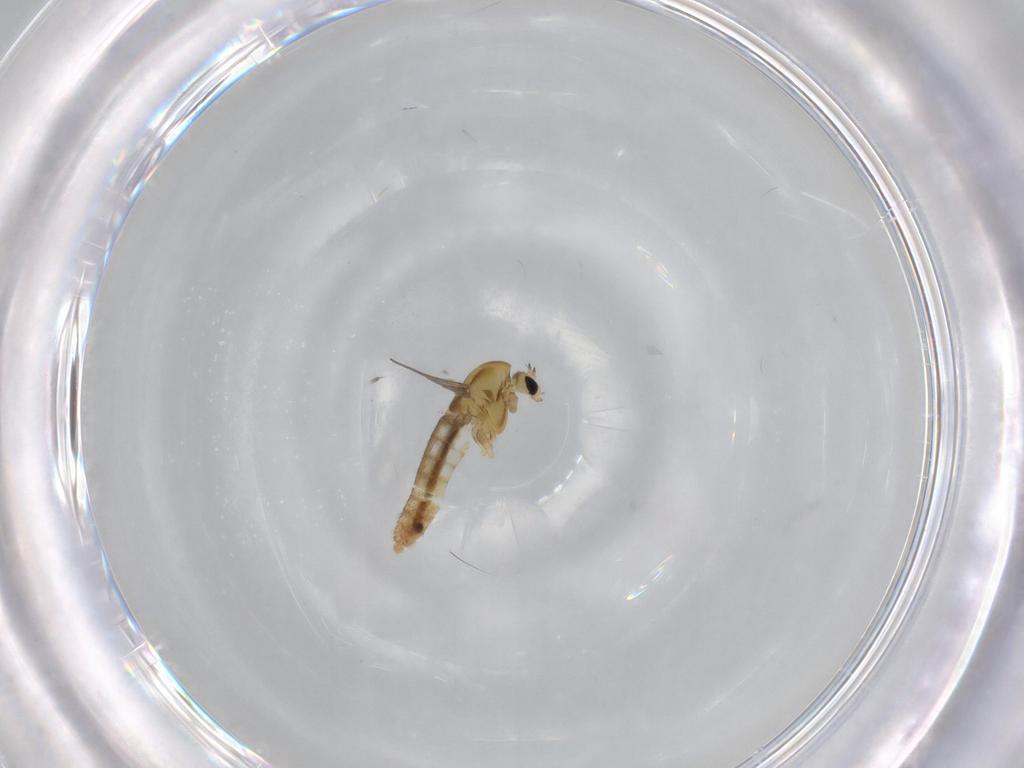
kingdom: Animalia
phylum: Arthropoda
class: Insecta
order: Diptera
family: Chironomidae
